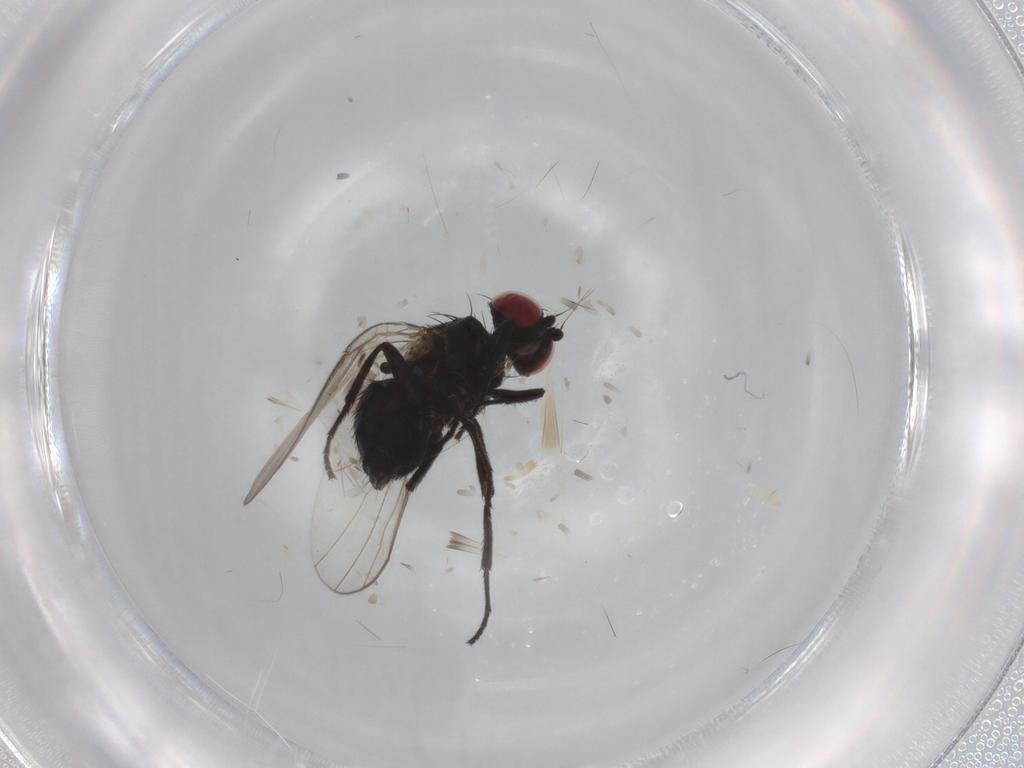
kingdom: Animalia
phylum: Arthropoda
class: Insecta
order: Diptera
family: Agromyzidae
